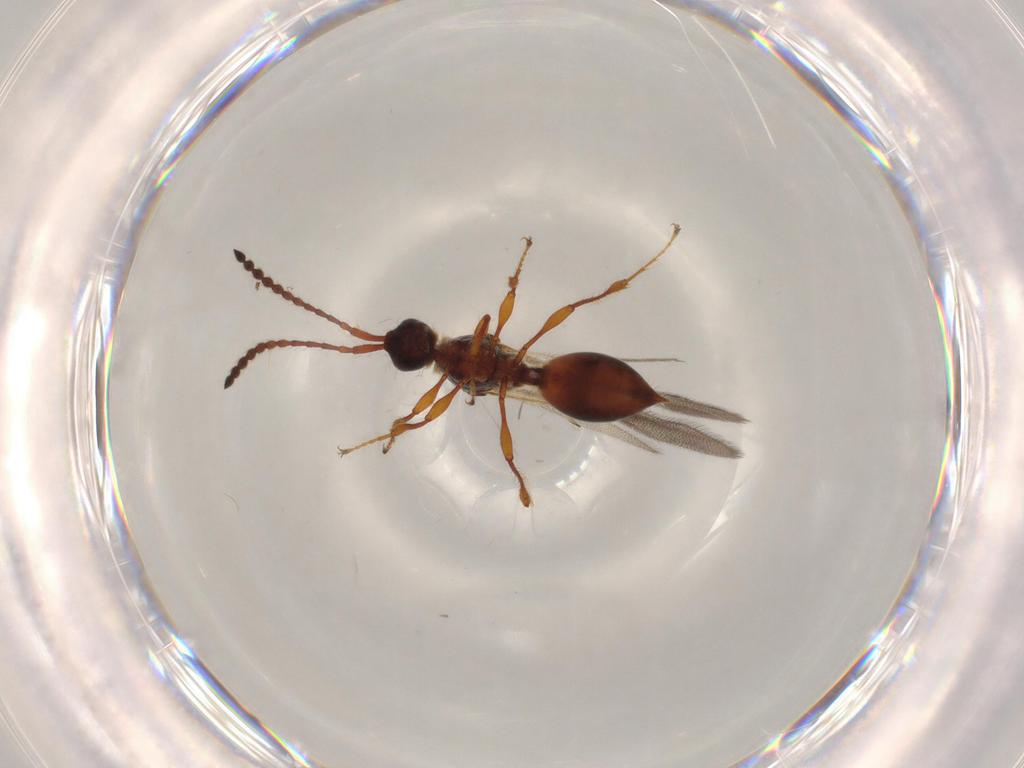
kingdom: Animalia
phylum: Arthropoda
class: Insecta
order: Hymenoptera
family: Diapriidae
